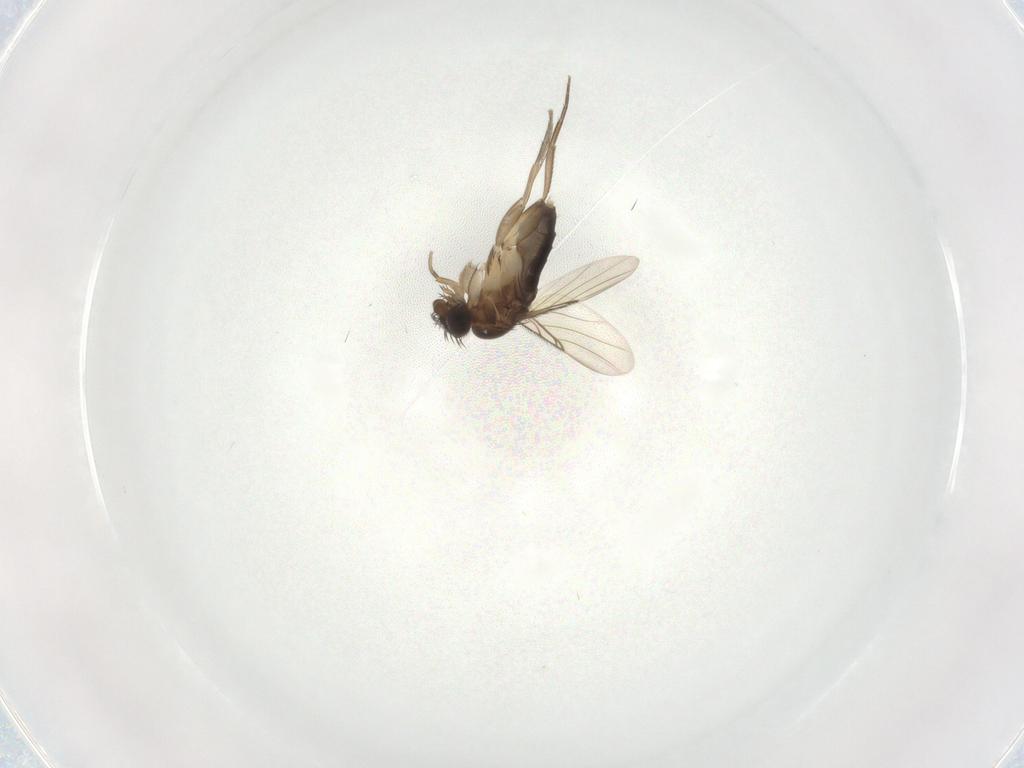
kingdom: Animalia
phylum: Arthropoda
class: Insecta
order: Diptera
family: Phoridae
